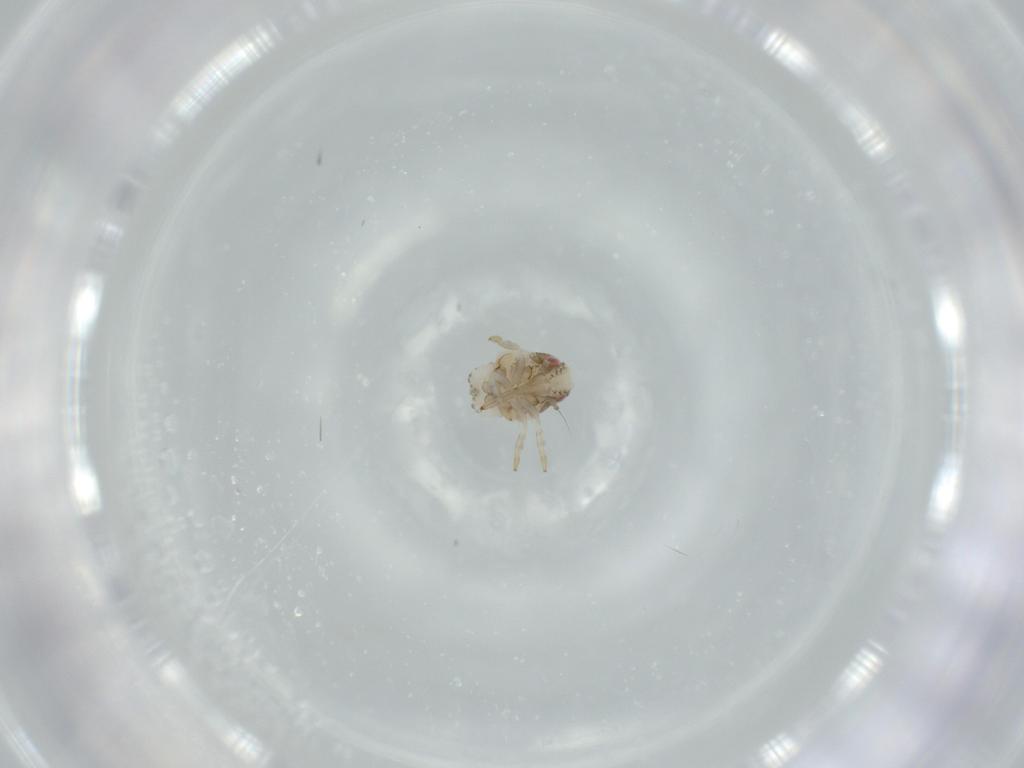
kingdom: Animalia
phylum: Arthropoda
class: Insecta
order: Hemiptera
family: Acanaloniidae
